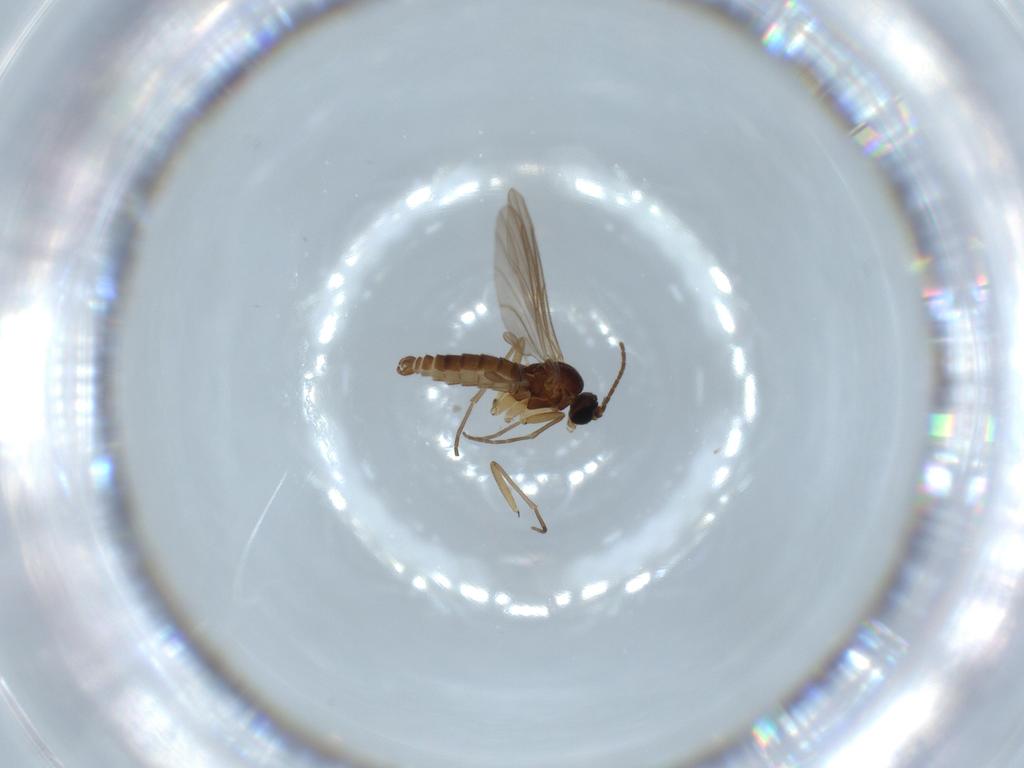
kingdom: Animalia
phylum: Arthropoda
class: Insecta
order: Diptera
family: Sciaridae
